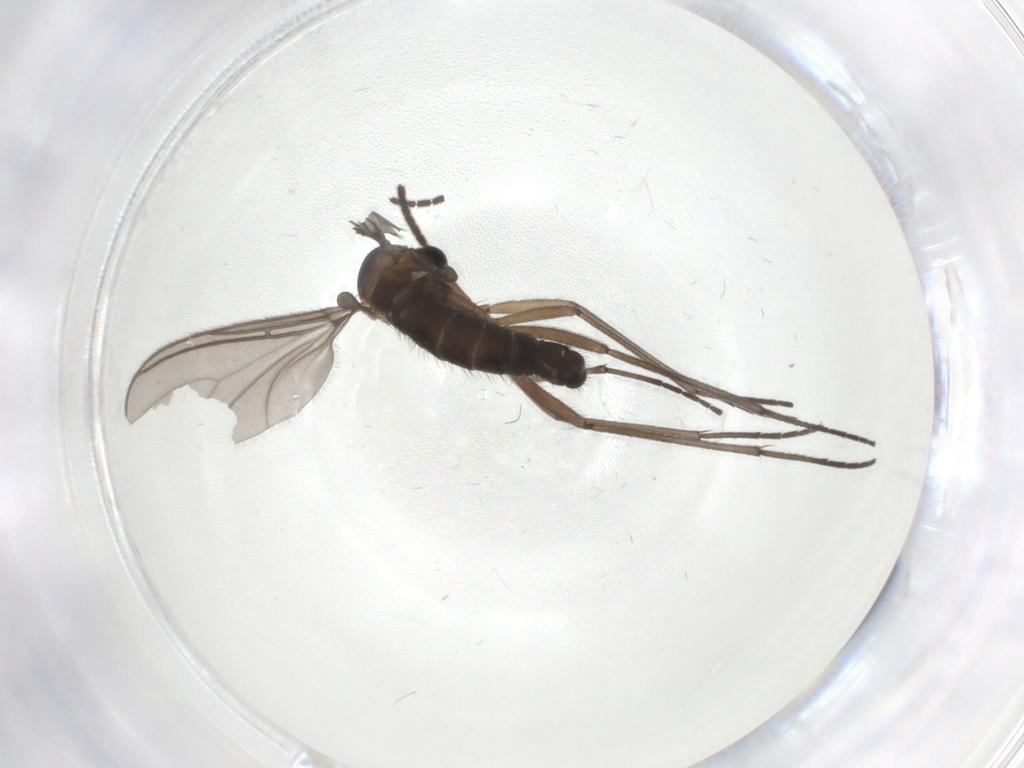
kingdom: Animalia
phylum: Arthropoda
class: Insecta
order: Diptera
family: Sciaridae
